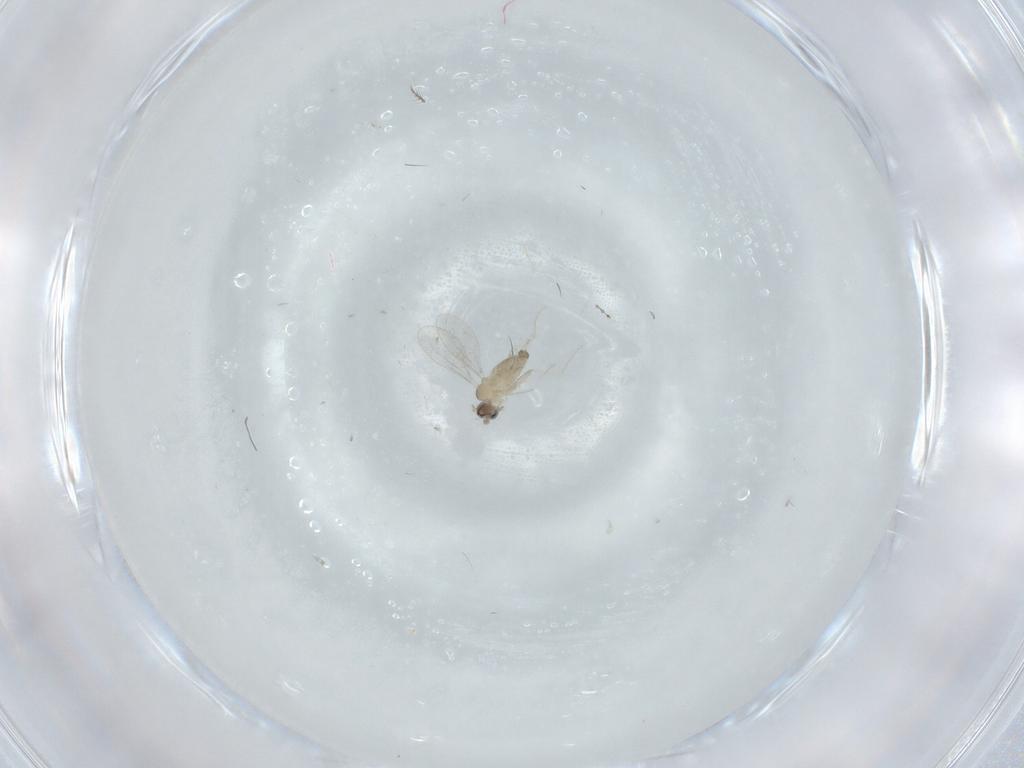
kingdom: Animalia
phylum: Arthropoda
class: Insecta
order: Diptera
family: Cecidomyiidae
